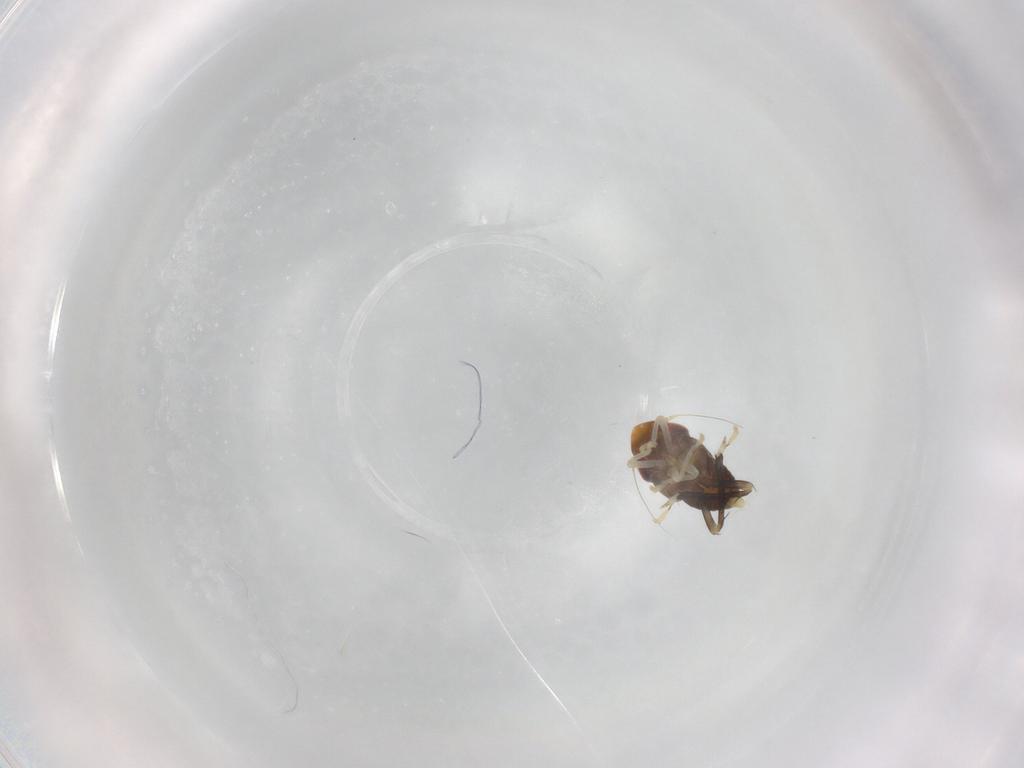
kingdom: Animalia
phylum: Arthropoda
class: Insecta
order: Hemiptera
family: Cicadellidae
